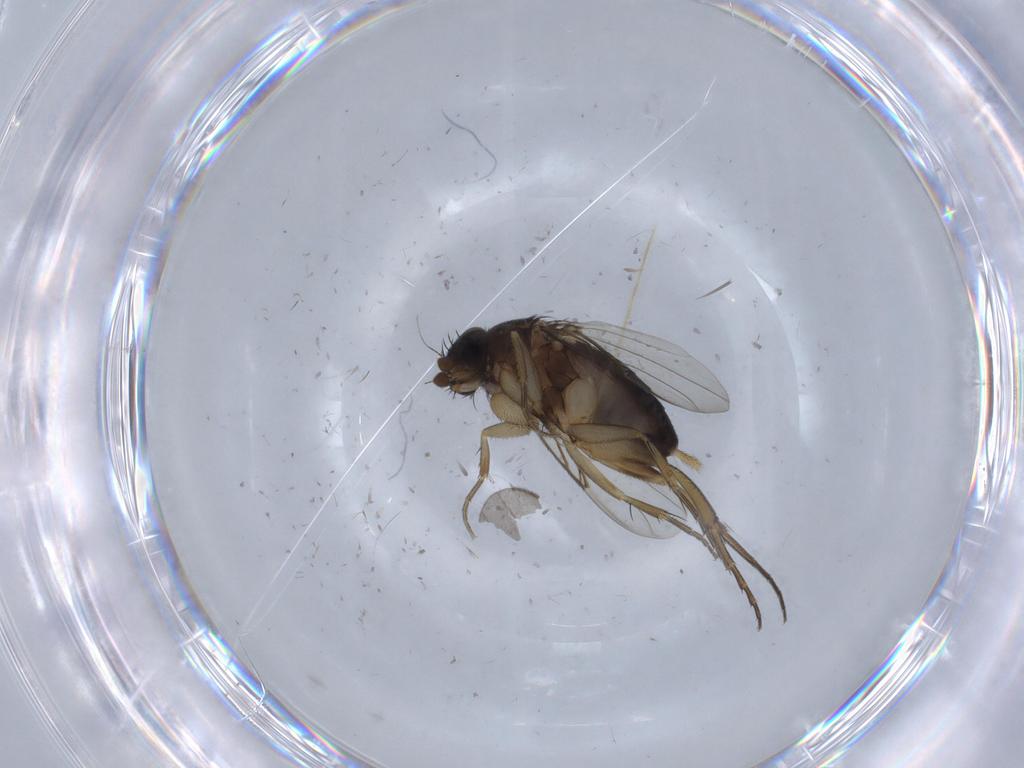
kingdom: Animalia
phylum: Arthropoda
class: Insecta
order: Diptera
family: Phoridae
